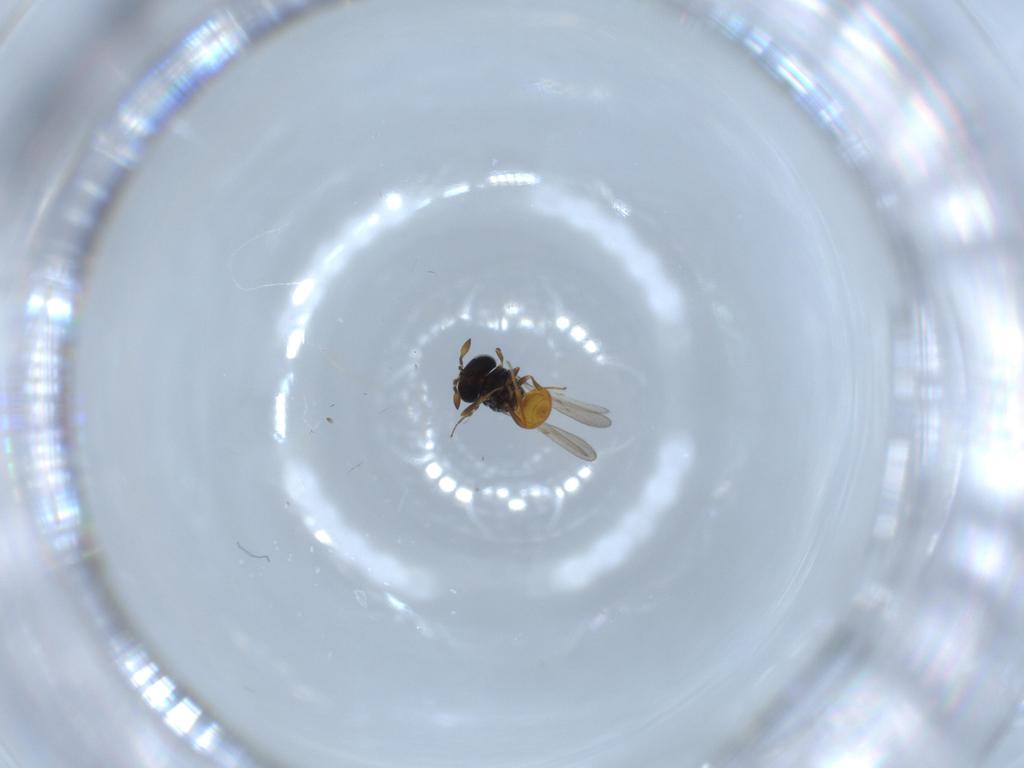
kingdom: Animalia
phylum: Arthropoda
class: Insecta
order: Hymenoptera
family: Scelionidae
